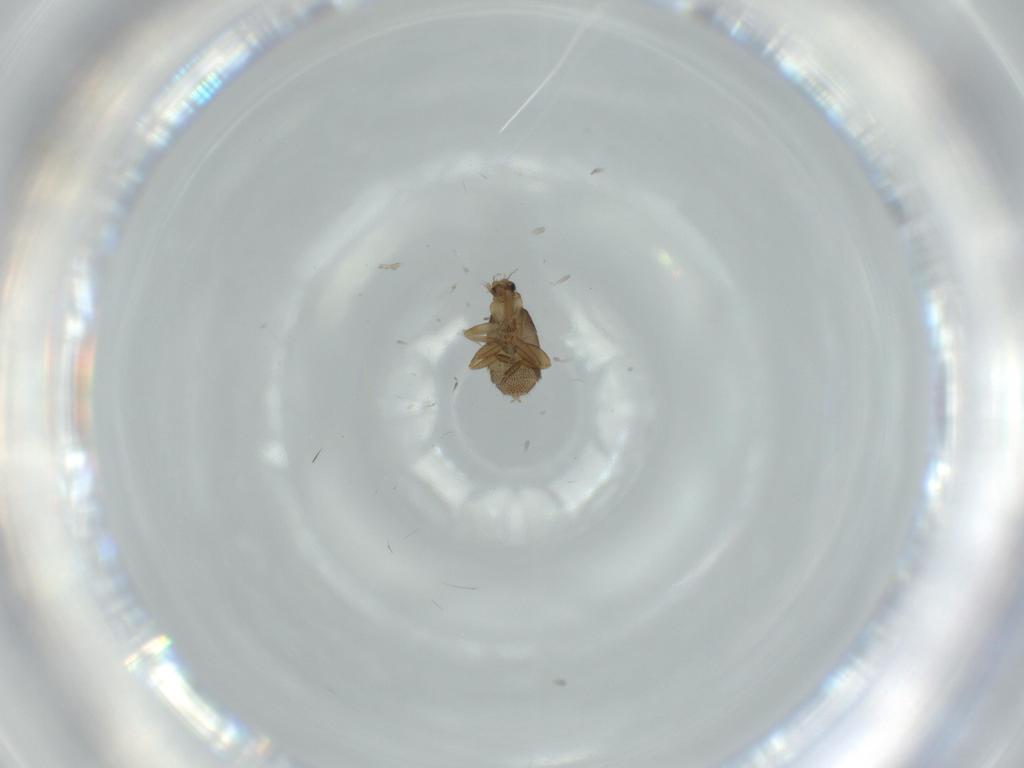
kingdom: Animalia
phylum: Arthropoda
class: Insecta
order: Diptera
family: Phoridae
